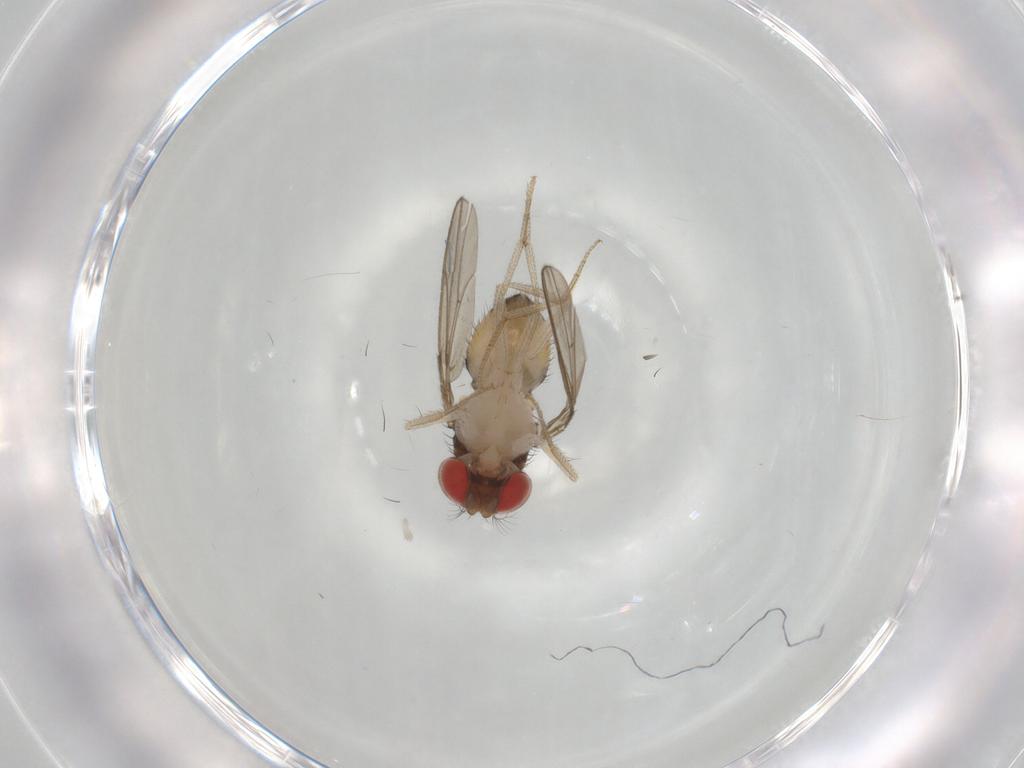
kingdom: Animalia
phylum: Arthropoda
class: Insecta
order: Diptera
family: Drosophilidae
